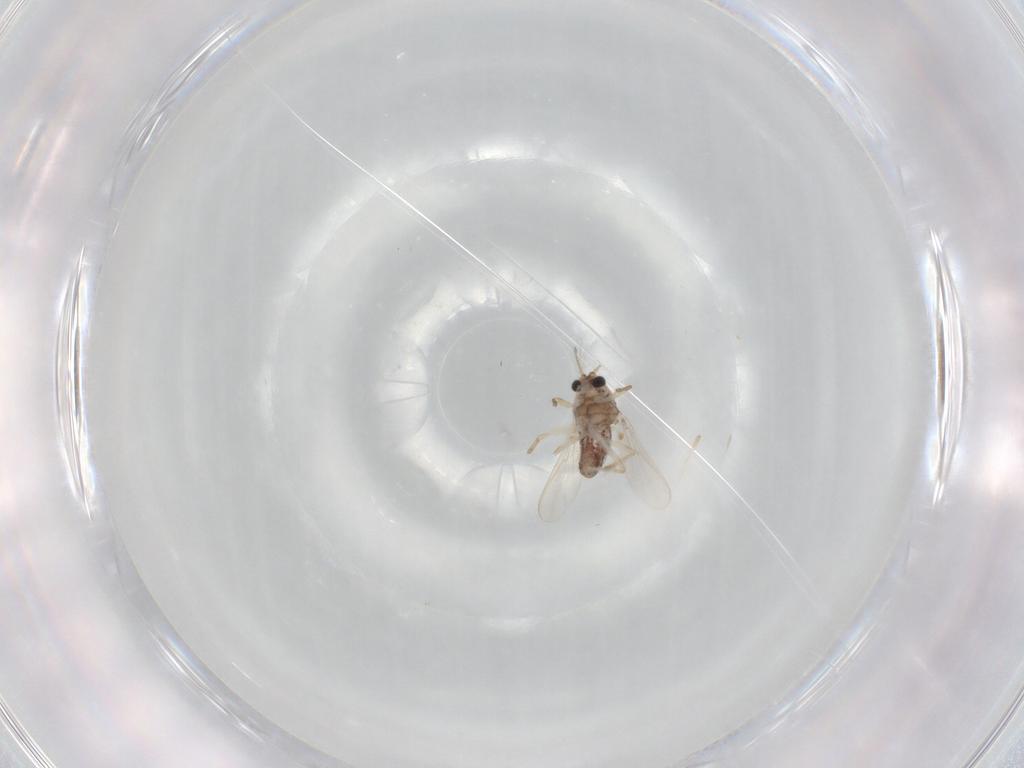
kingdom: Animalia
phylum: Arthropoda
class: Insecta
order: Diptera
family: Chironomidae
